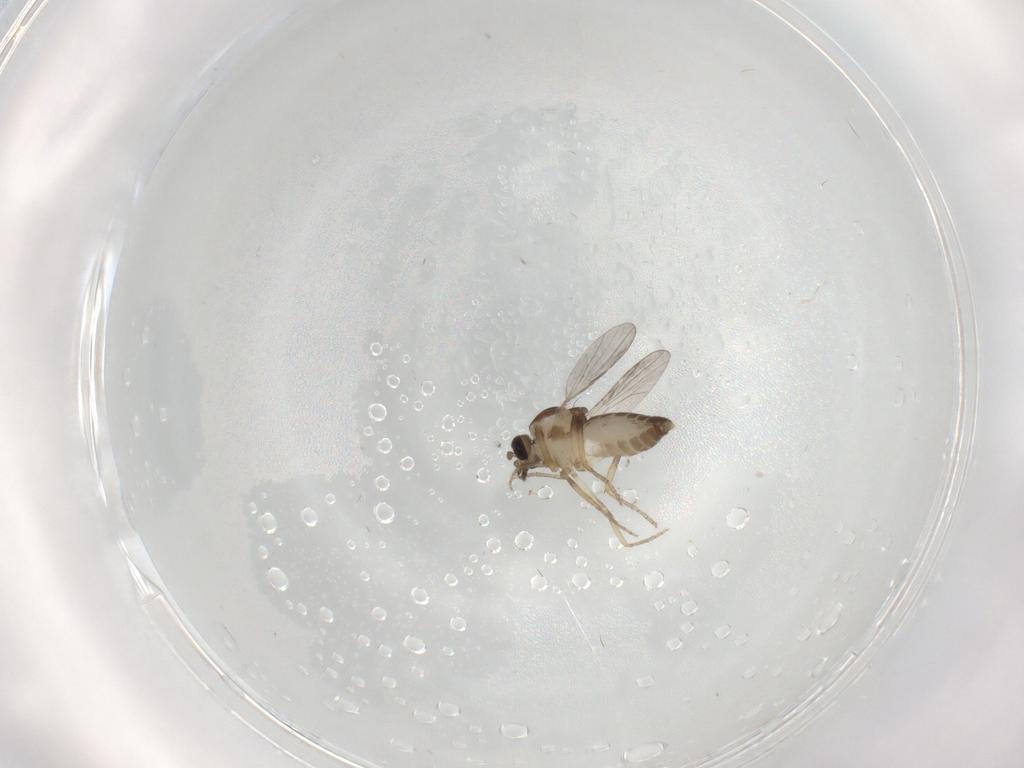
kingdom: Animalia
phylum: Arthropoda
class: Insecta
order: Diptera
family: Ceratopogonidae
